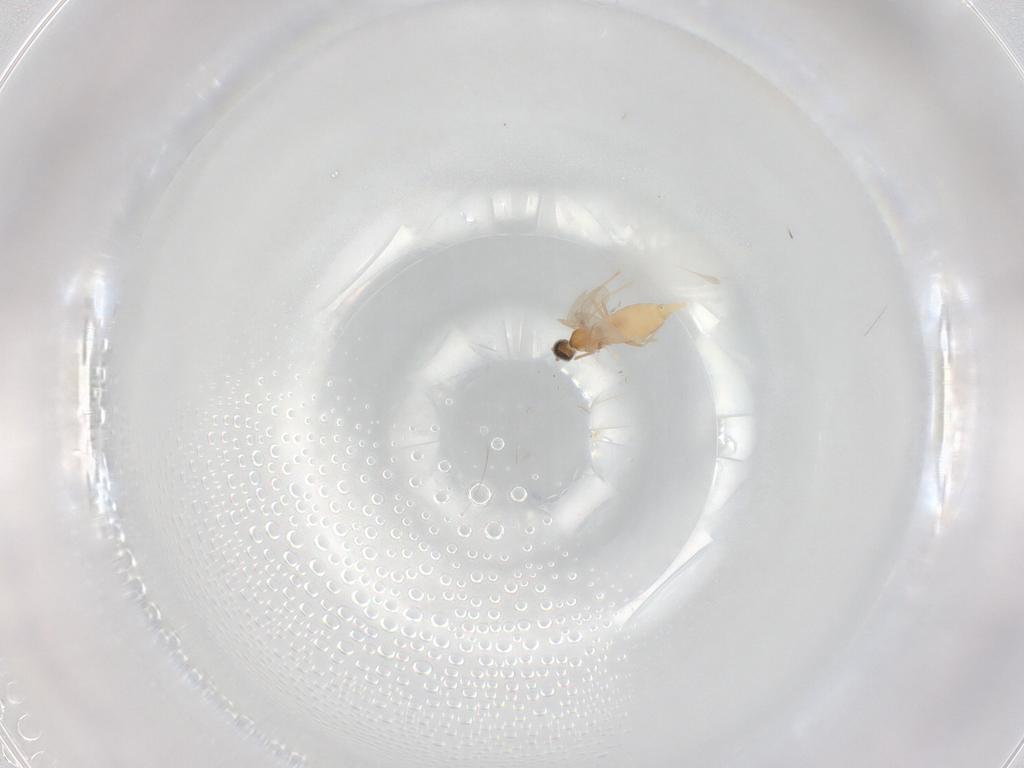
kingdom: Animalia
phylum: Arthropoda
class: Insecta
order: Diptera
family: Cecidomyiidae
